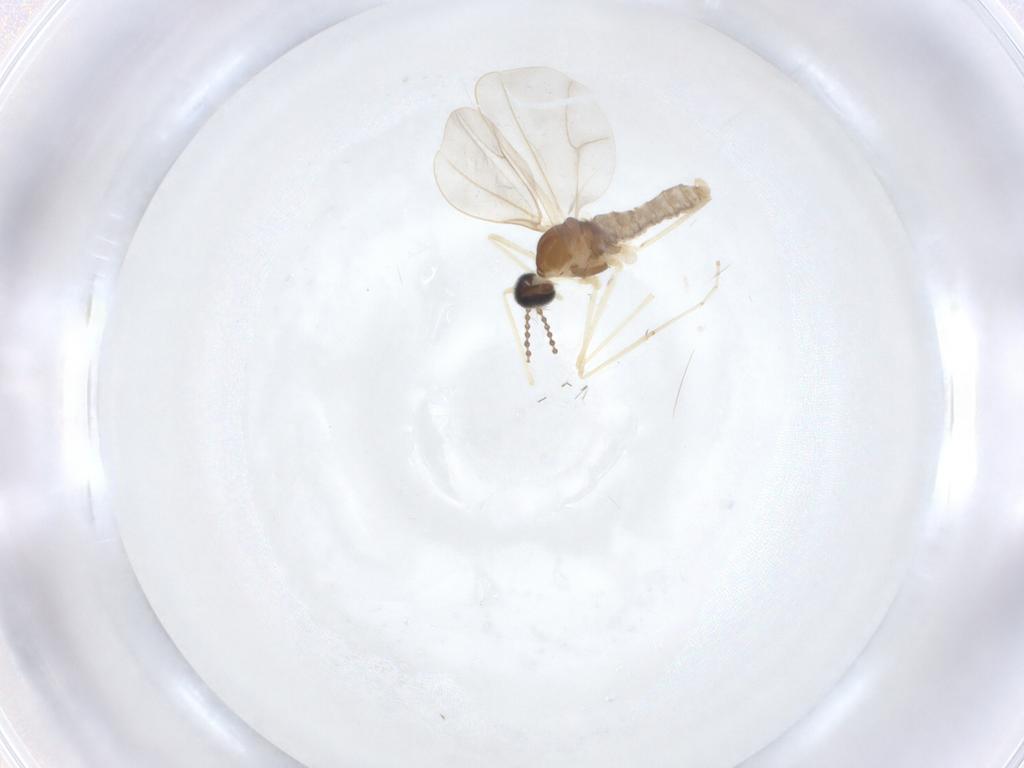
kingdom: Animalia
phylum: Arthropoda
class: Insecta
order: Diptera
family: Cecidomyiidae
